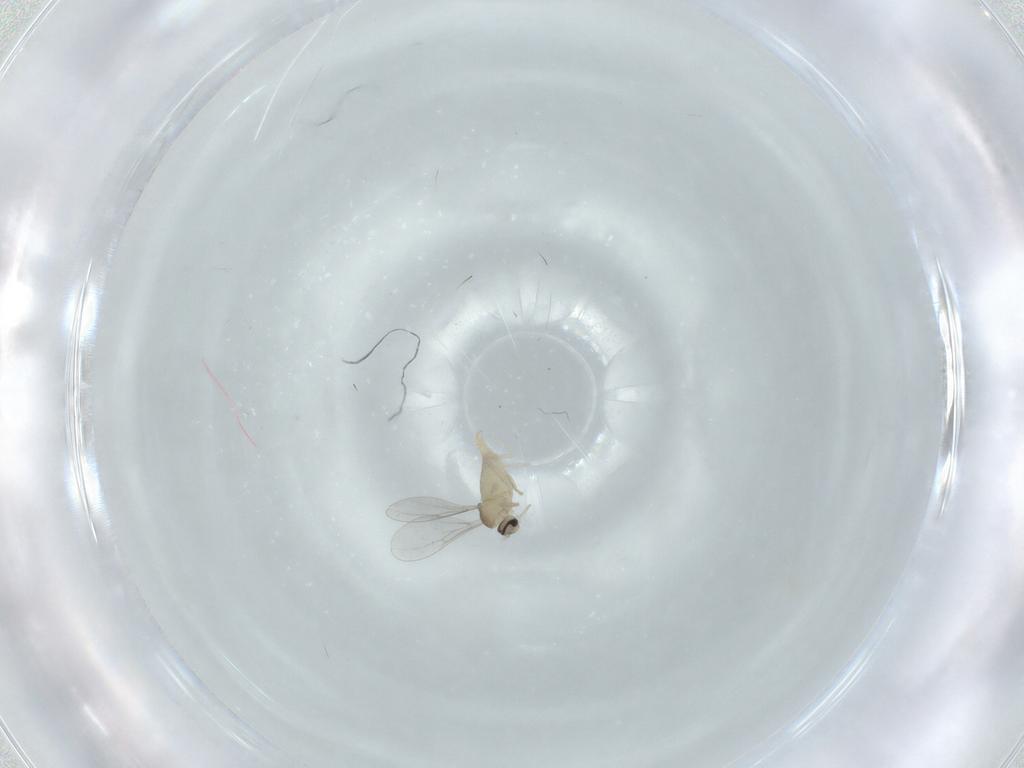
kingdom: Animalia
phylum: Arthropoda
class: Insecta
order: Diptera
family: Cecidomyiidae
